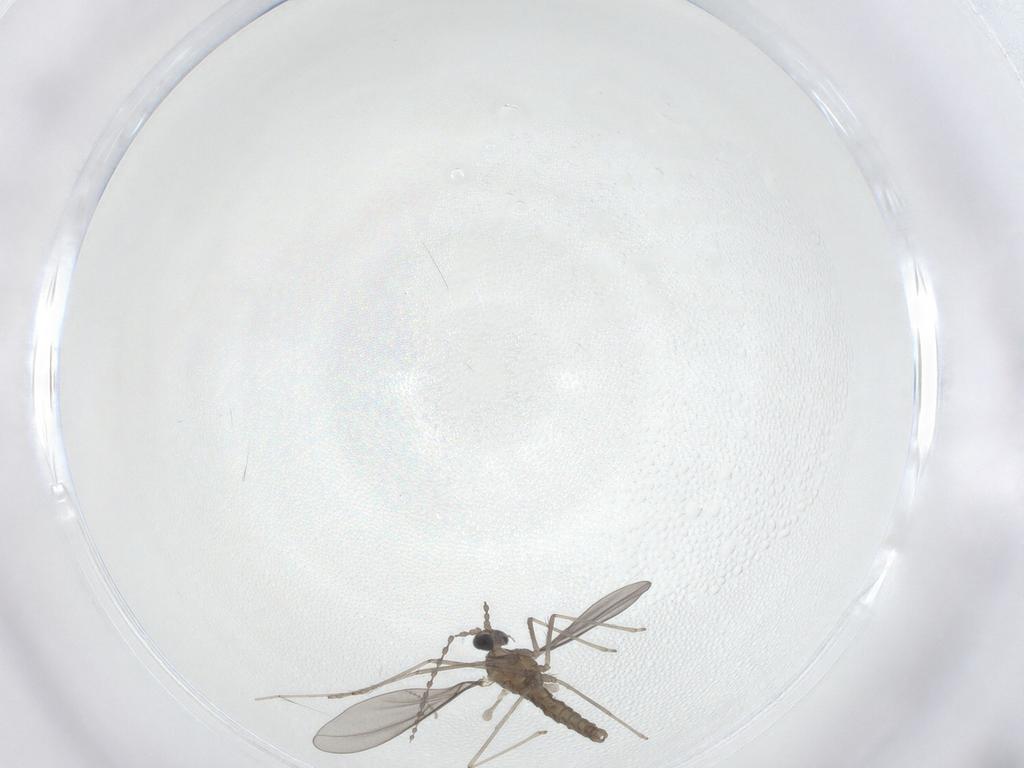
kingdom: Animalia
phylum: Arthropoda
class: Insecta
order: Diptera
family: Cecidomyiidae
